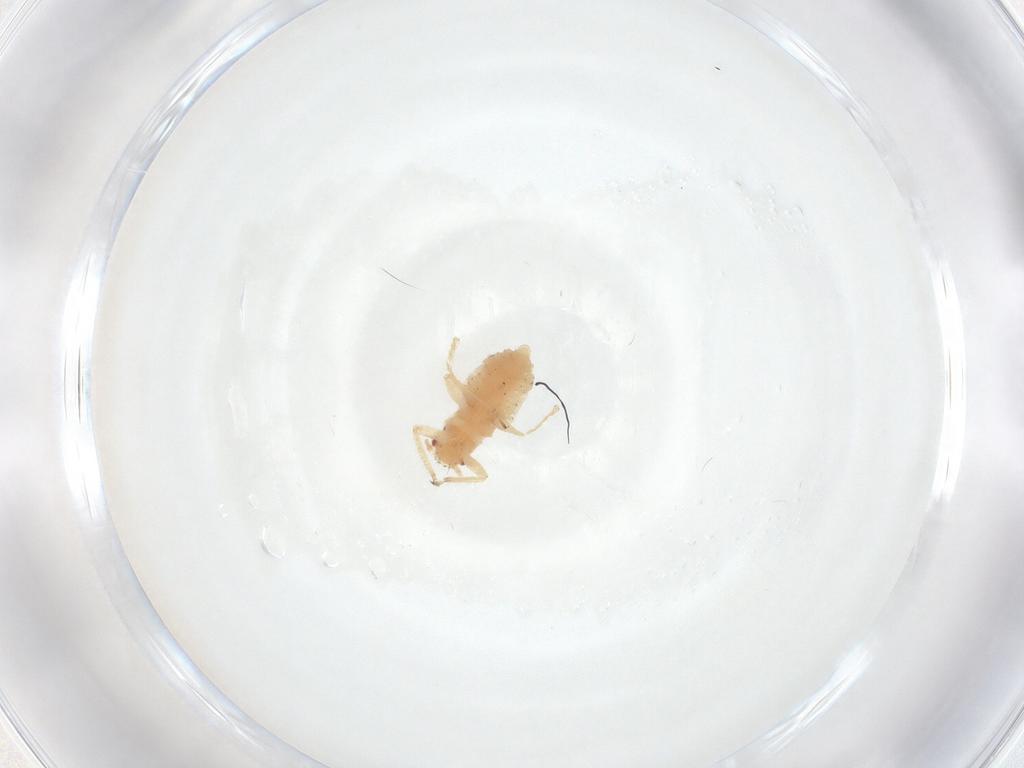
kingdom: Animalia
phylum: Arthropoda
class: Insecta
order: Hemiptera
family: Aphididae
